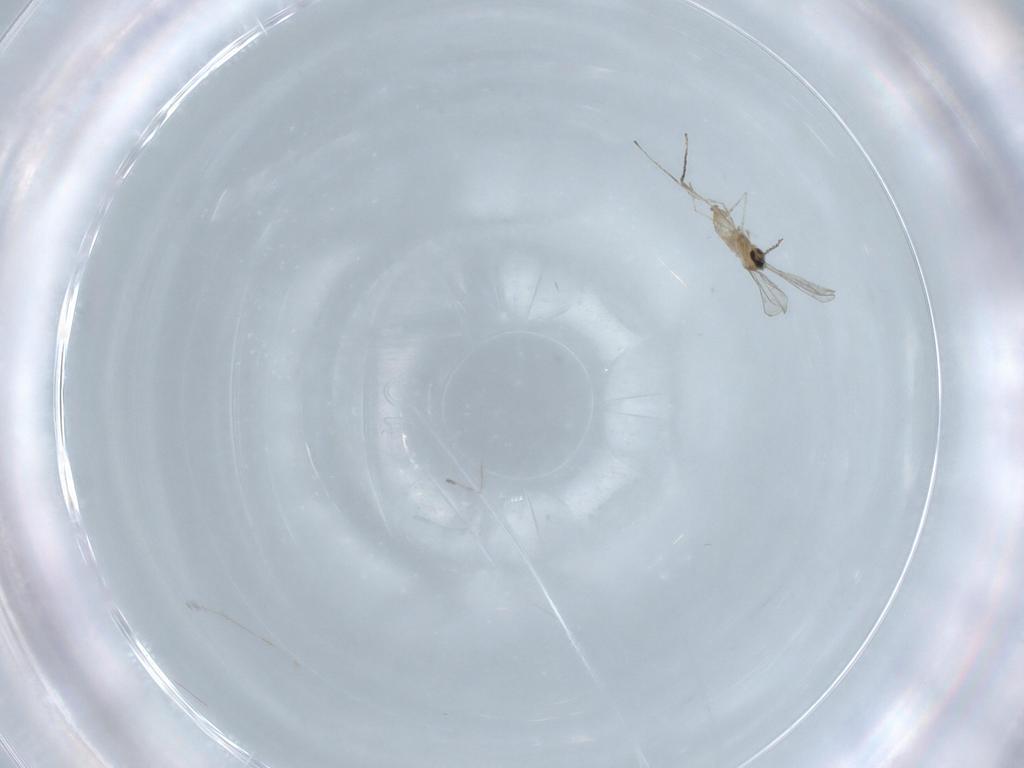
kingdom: Animalia
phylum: Arthropoda
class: Insecta
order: Diptera
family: Cecidomyiidae
